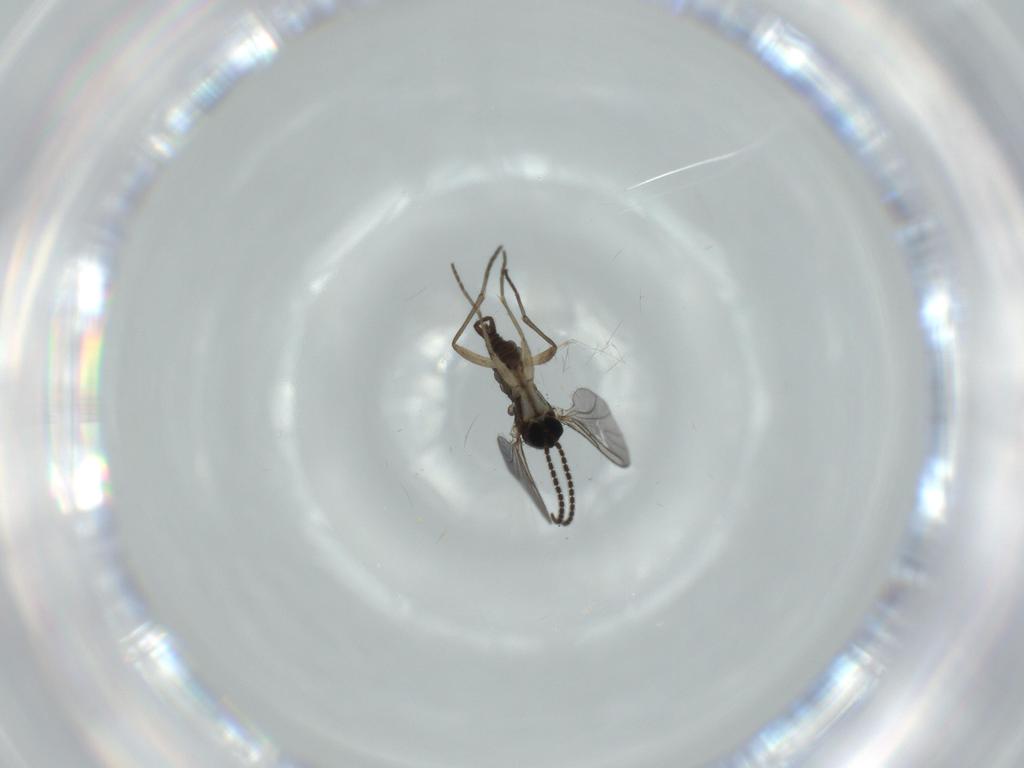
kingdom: Animalia
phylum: Arthropoda
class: Insecta
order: Diptera
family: Sciaridae
